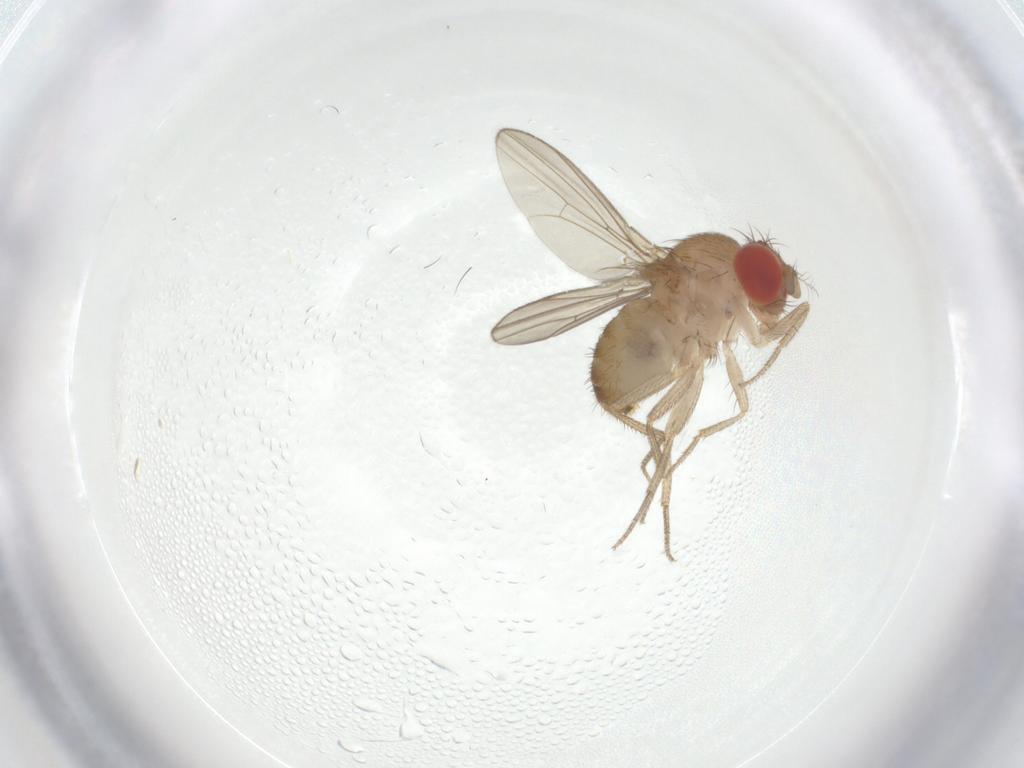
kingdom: Animalia
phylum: Arthropoda
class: Insecta
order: Diptera
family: Drosophilidae
